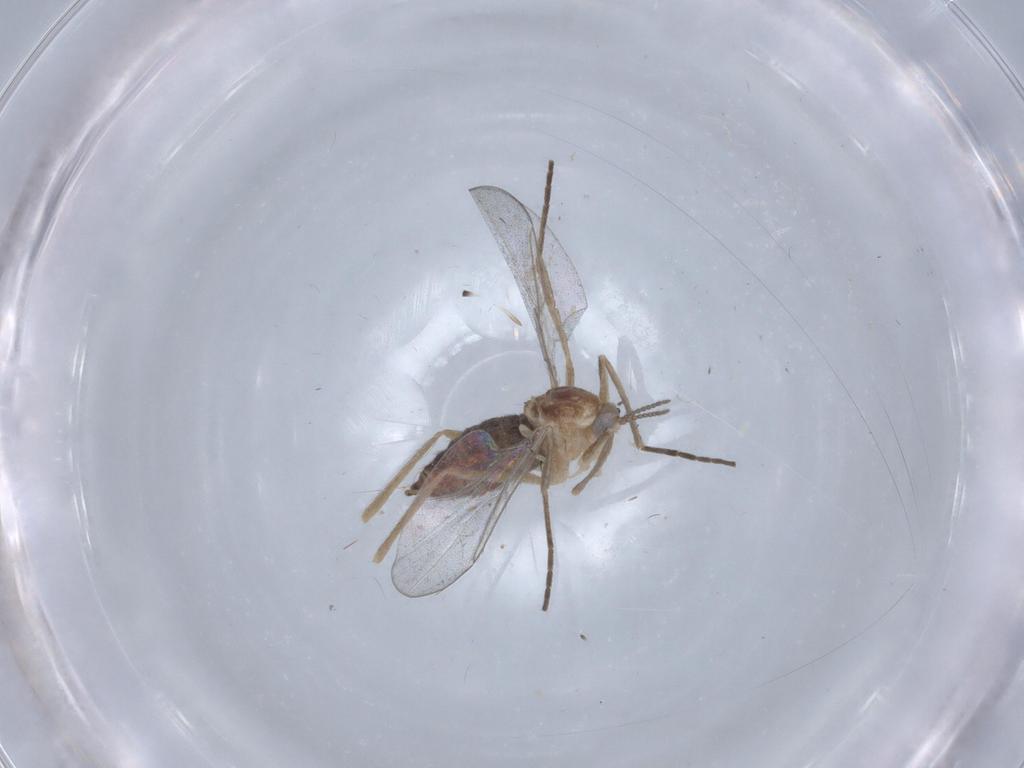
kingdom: Animalia
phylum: Arthropoda
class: Insecta
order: Diptera
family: Cecidomyiidae
